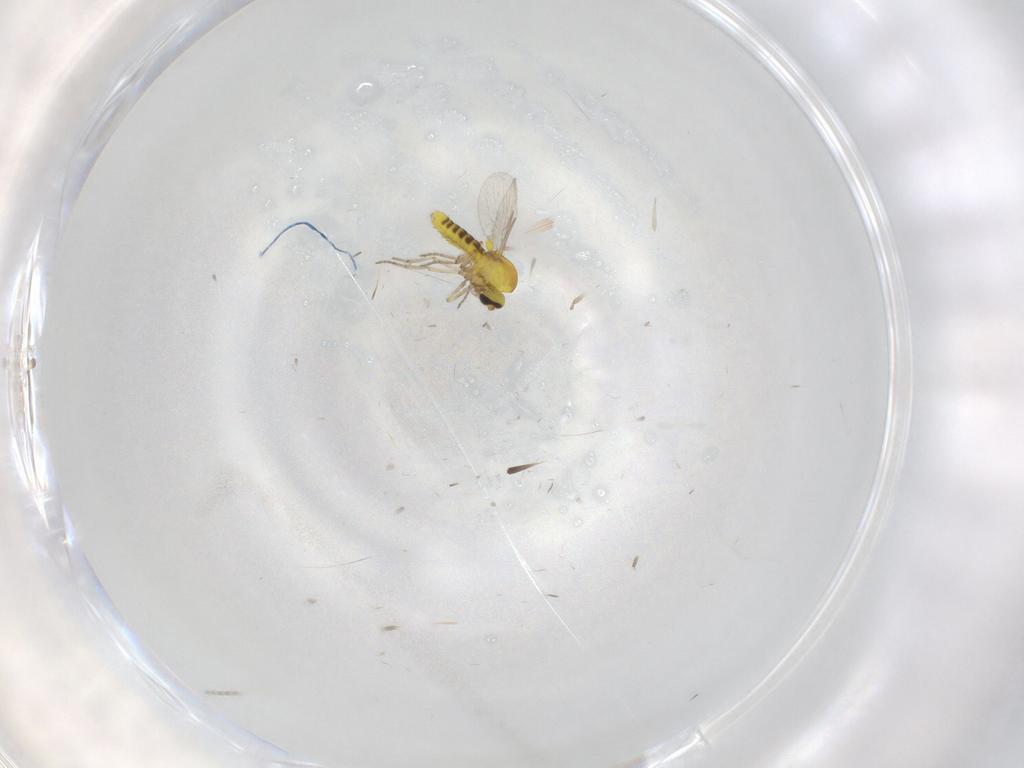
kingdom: Animalia
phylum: Arthropoda
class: Insecta
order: Diptera
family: Ceratopogonidae
